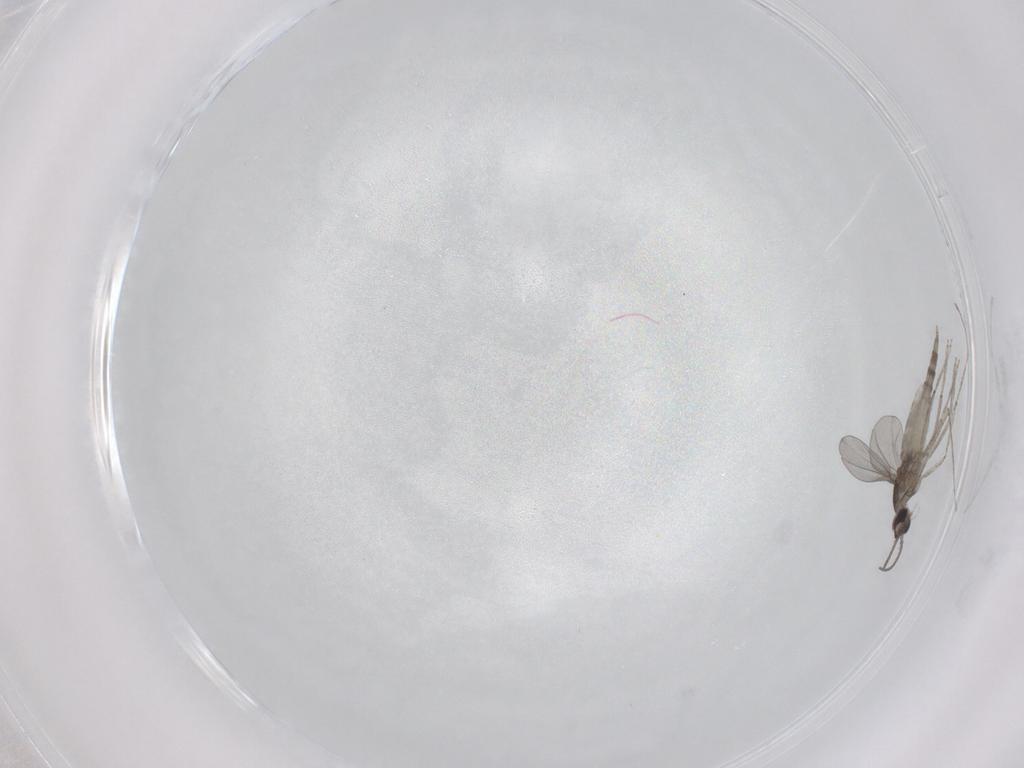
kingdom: Animalia
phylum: Arthropoda
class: Insecta
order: Diptera
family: Cecidomyiidae
